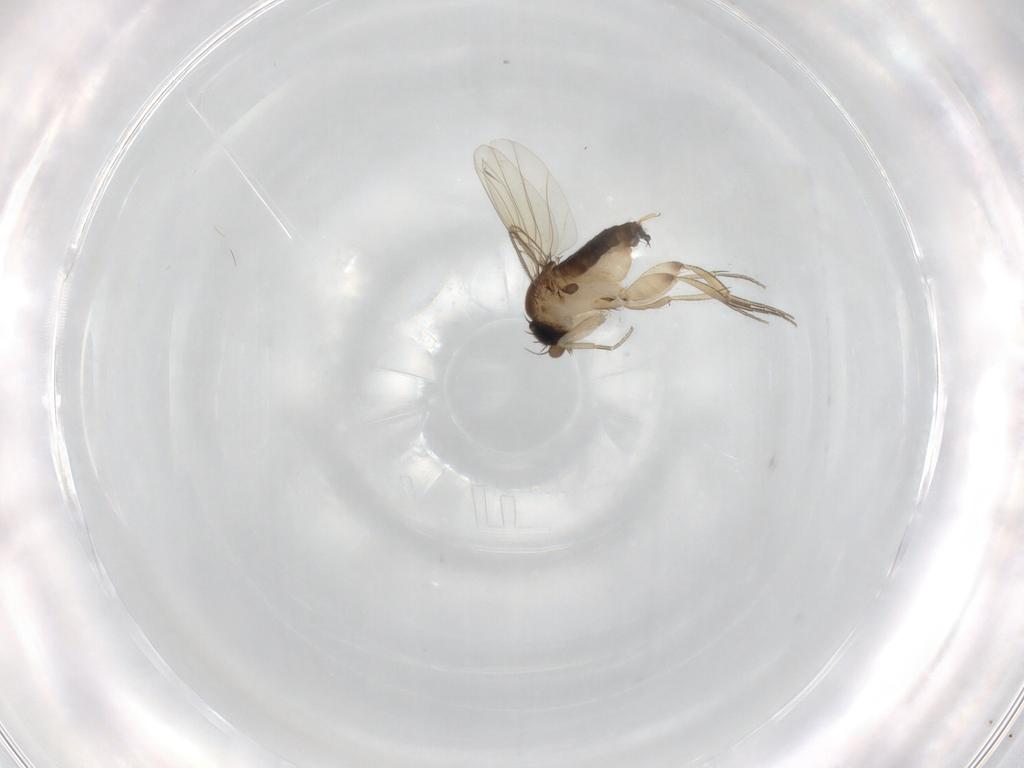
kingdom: Animalia
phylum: Arthropoda
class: Insecta
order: Diptera
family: Phoridae
